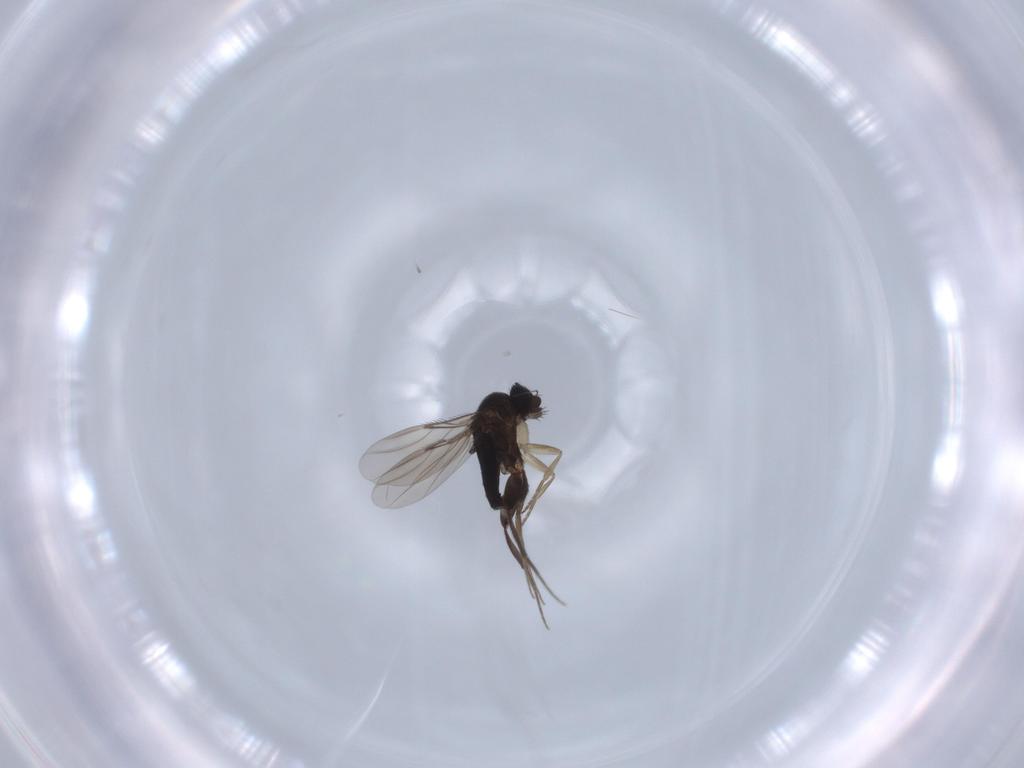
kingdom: Animalia
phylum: Arthropoda
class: Insecta
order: Diptera
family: Phoridae
